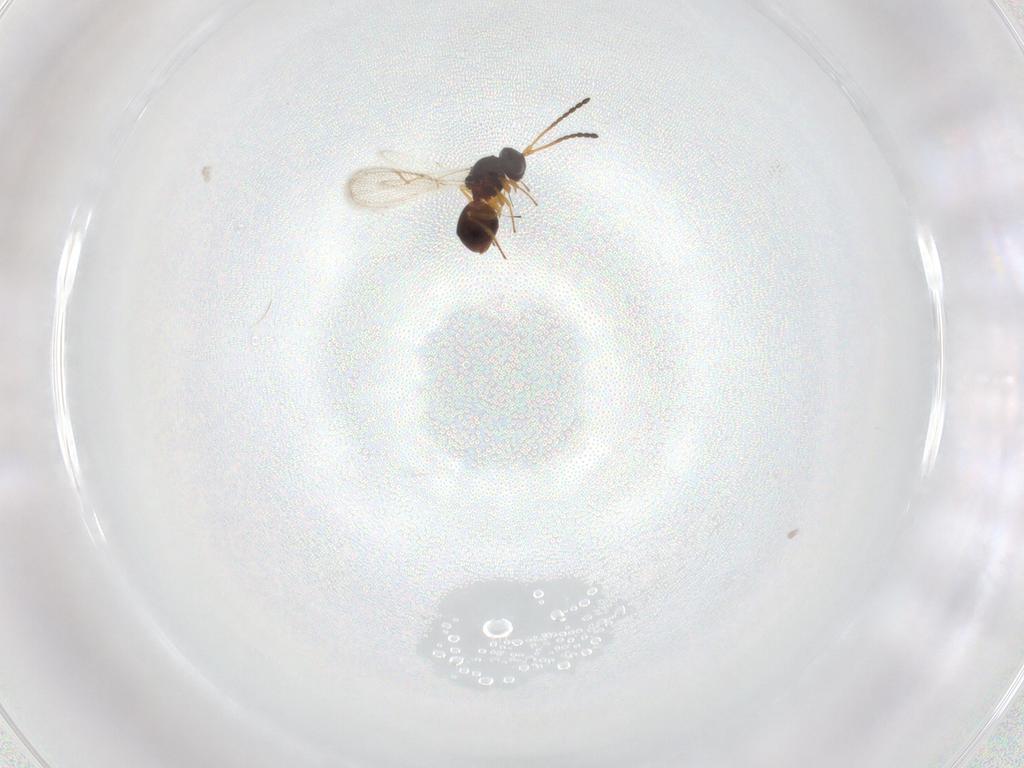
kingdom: Animalia
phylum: Arthropoda
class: Insecta
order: Hymenoptera
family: Figitidae
